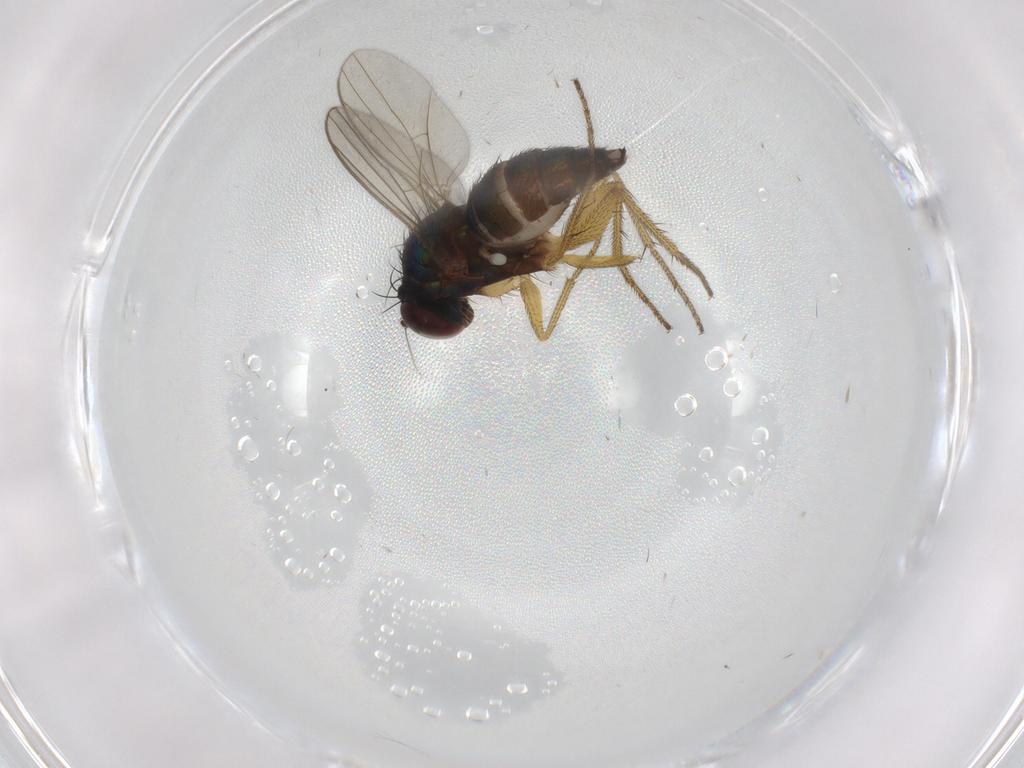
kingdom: Animalia
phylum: Arthropoda
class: Insecta
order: Diptera
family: Dolichopodidae
